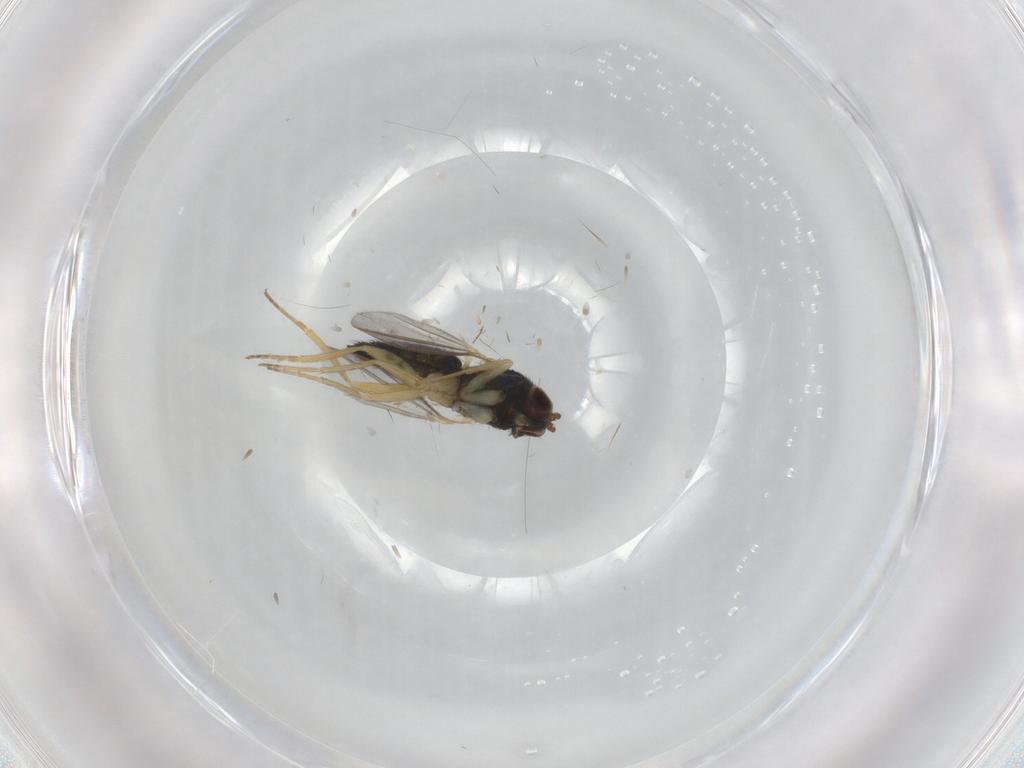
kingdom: Animalia
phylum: Arthropoda
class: Insecta
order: Diptera
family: Dolichopodidae
